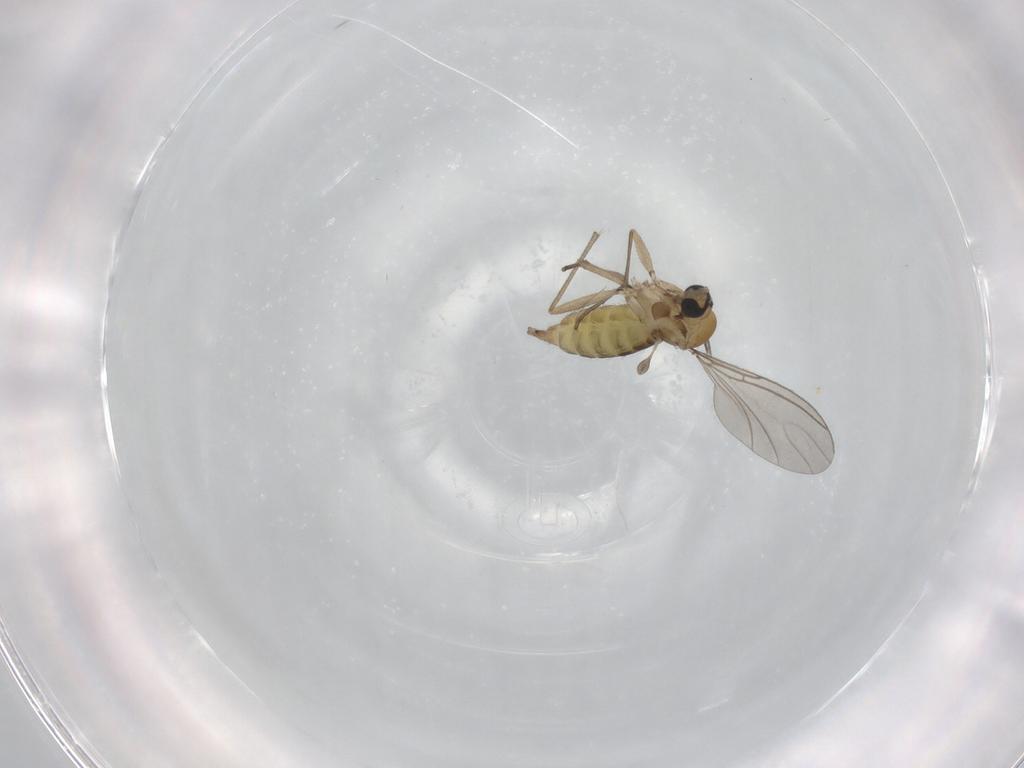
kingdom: Animalia
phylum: Arthropoda
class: Insecta
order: Diptera
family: Sciaridae
